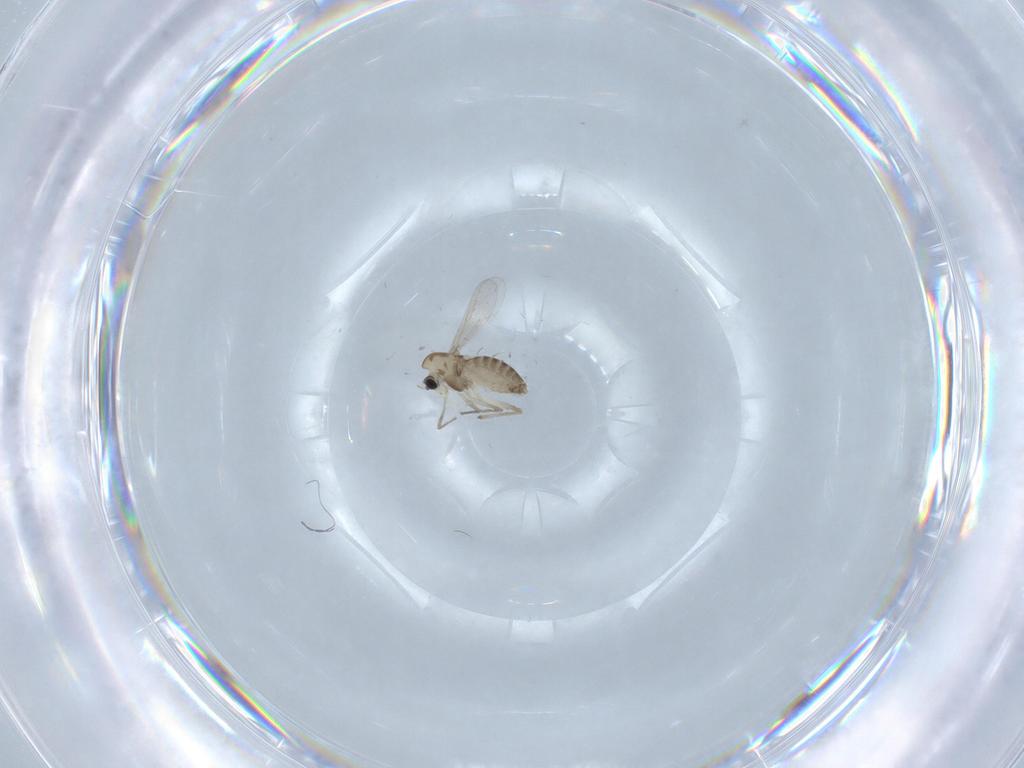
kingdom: Animalia
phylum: Arthropoda
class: Insecta
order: Diptera
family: Chironomidae
